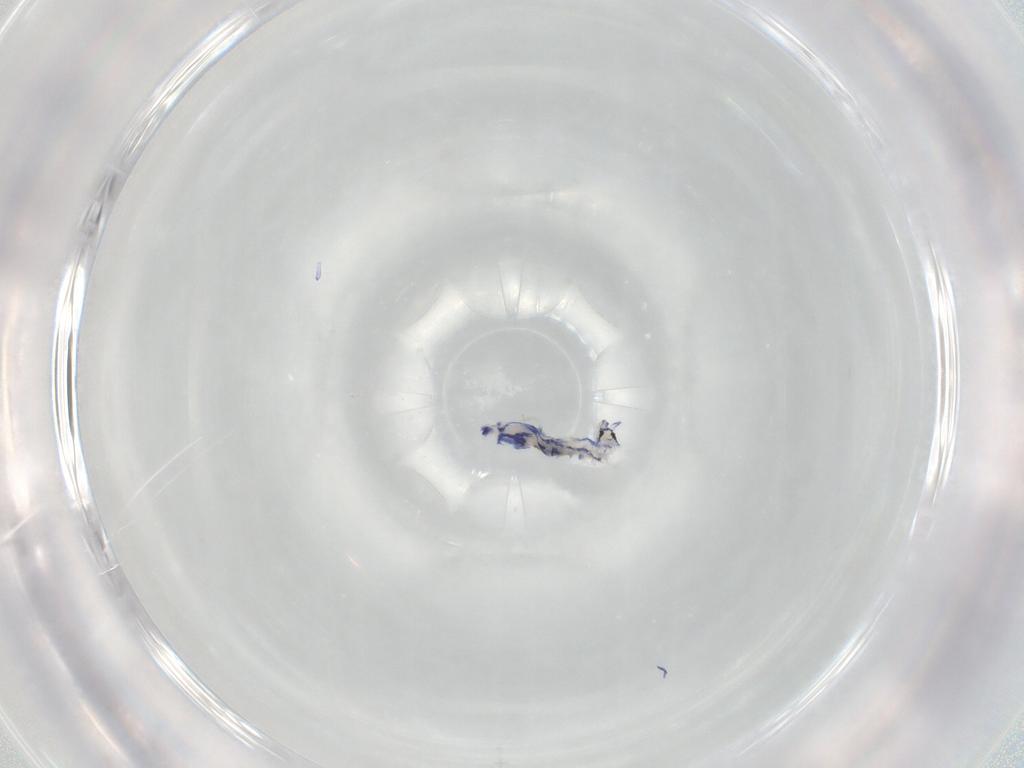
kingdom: Animalia
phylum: Arthropoda
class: Collembola
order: Entomobryomorpha
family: Entomobryidae
